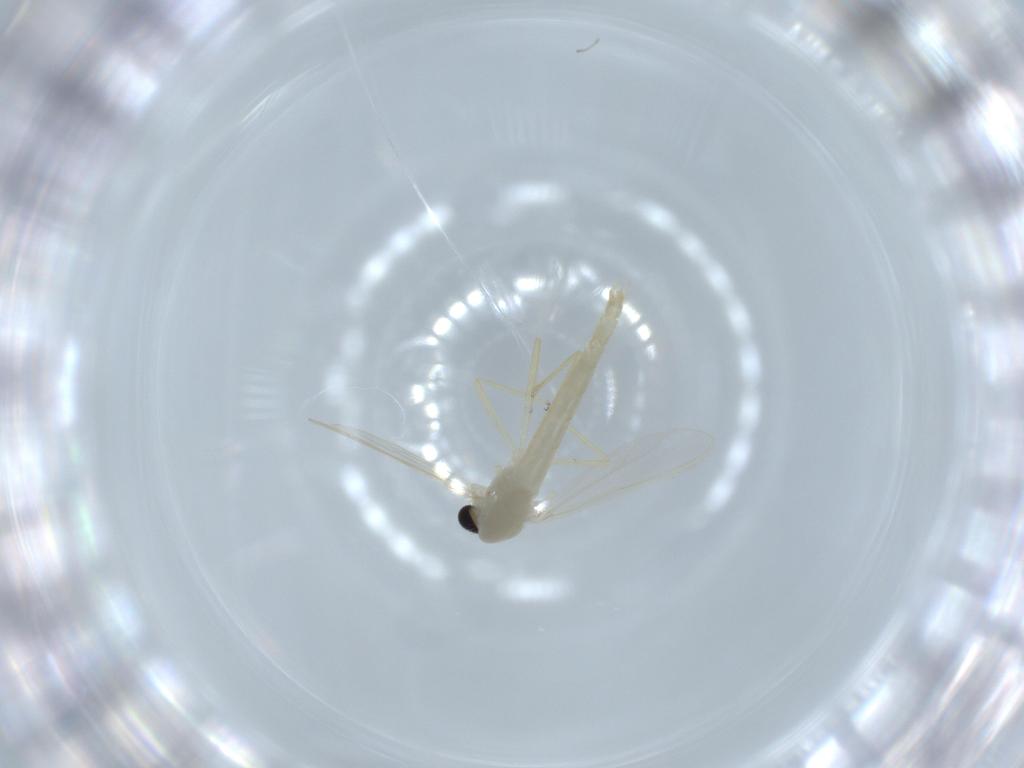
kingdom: Animalia
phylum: Arthropoda
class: Insecta
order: Diptera
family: Chironomidae
